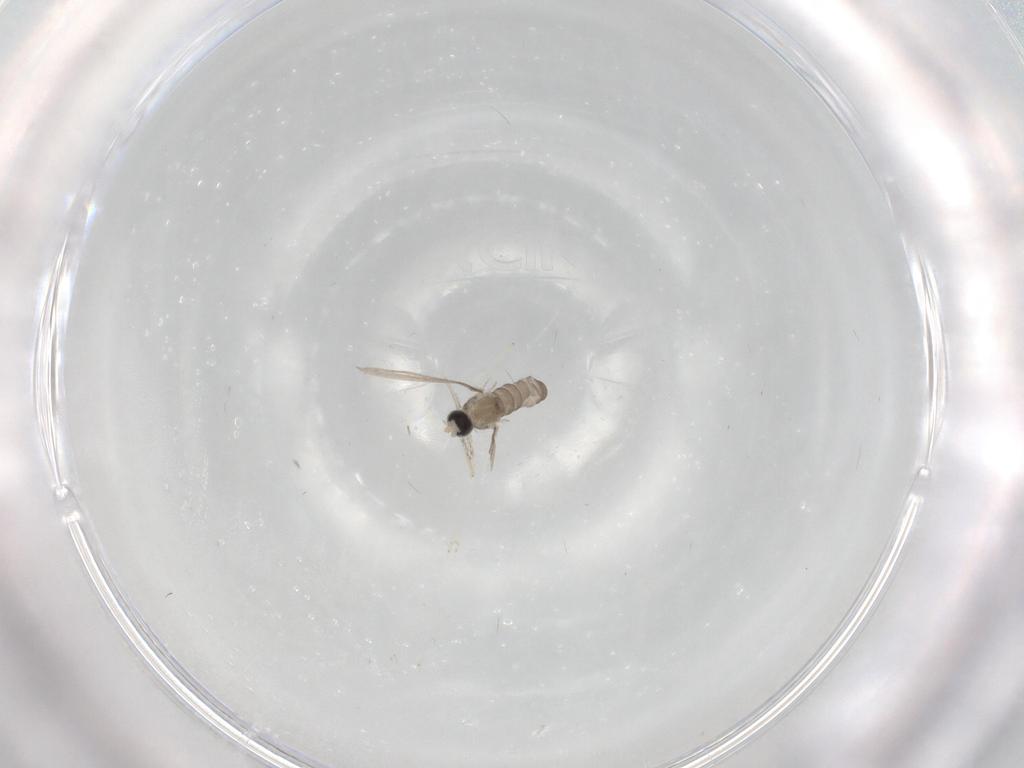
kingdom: Animalia
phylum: Arthropoda
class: Insecta
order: Diptera
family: Cecidomyiidae
